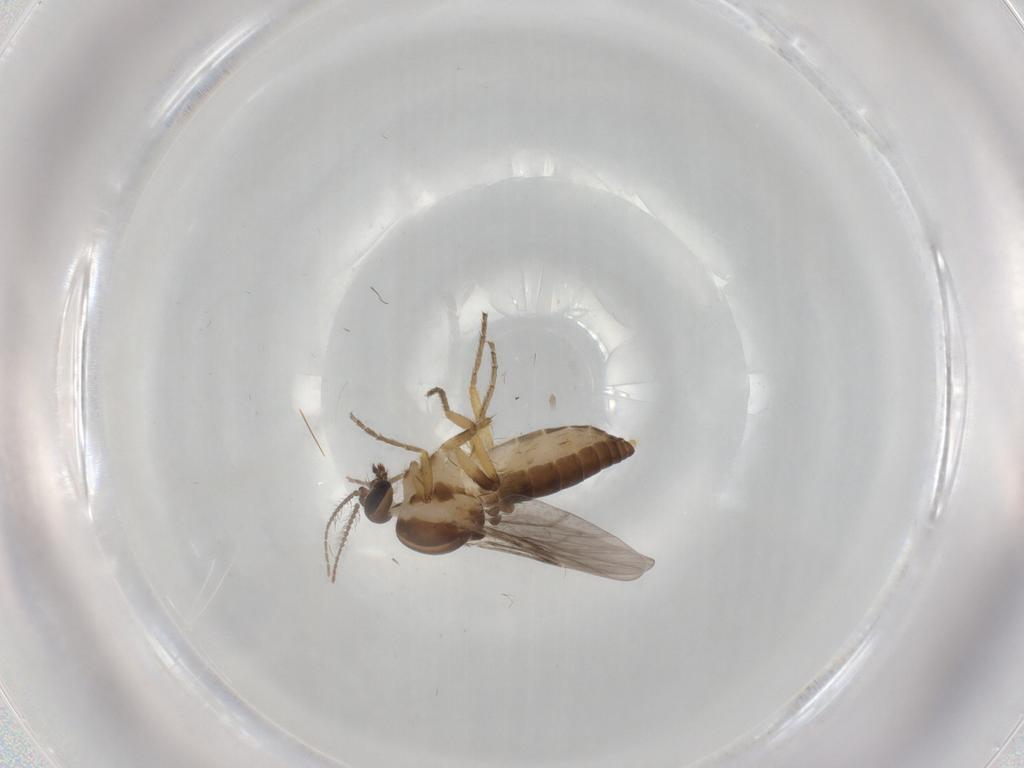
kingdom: Animalia
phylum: Arthropoda
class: Insecta
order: Diptera
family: Ceratopogonidae
